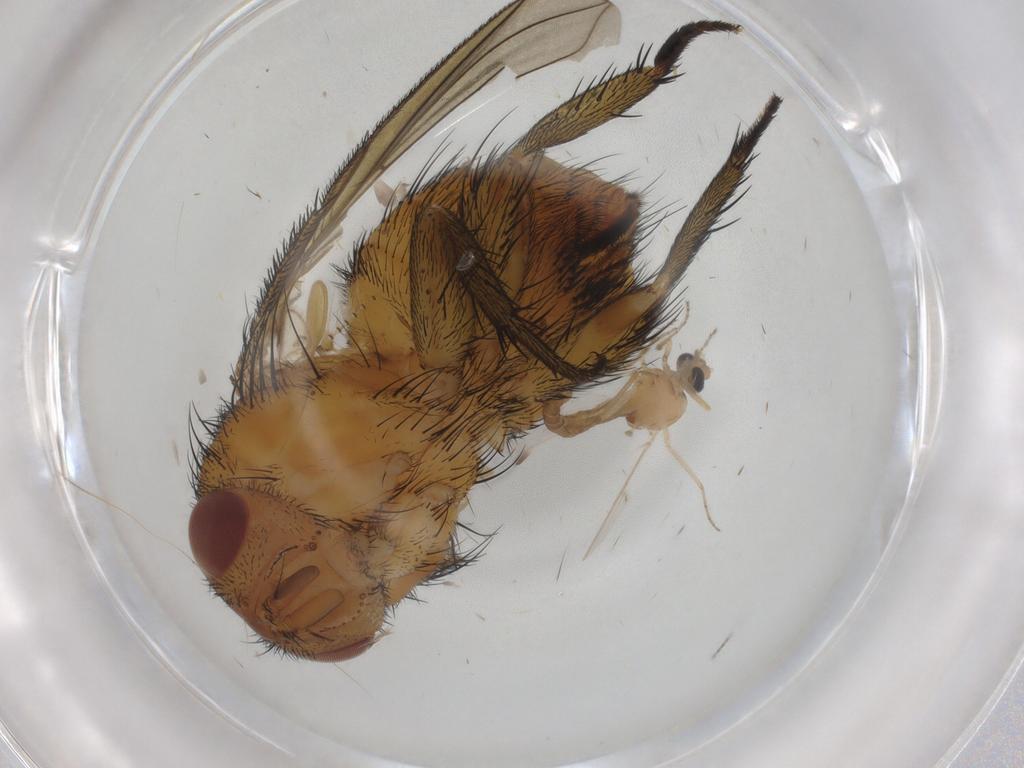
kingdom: Animalia
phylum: Arthropoda
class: Insecta
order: Diptera
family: Calliphoridae
